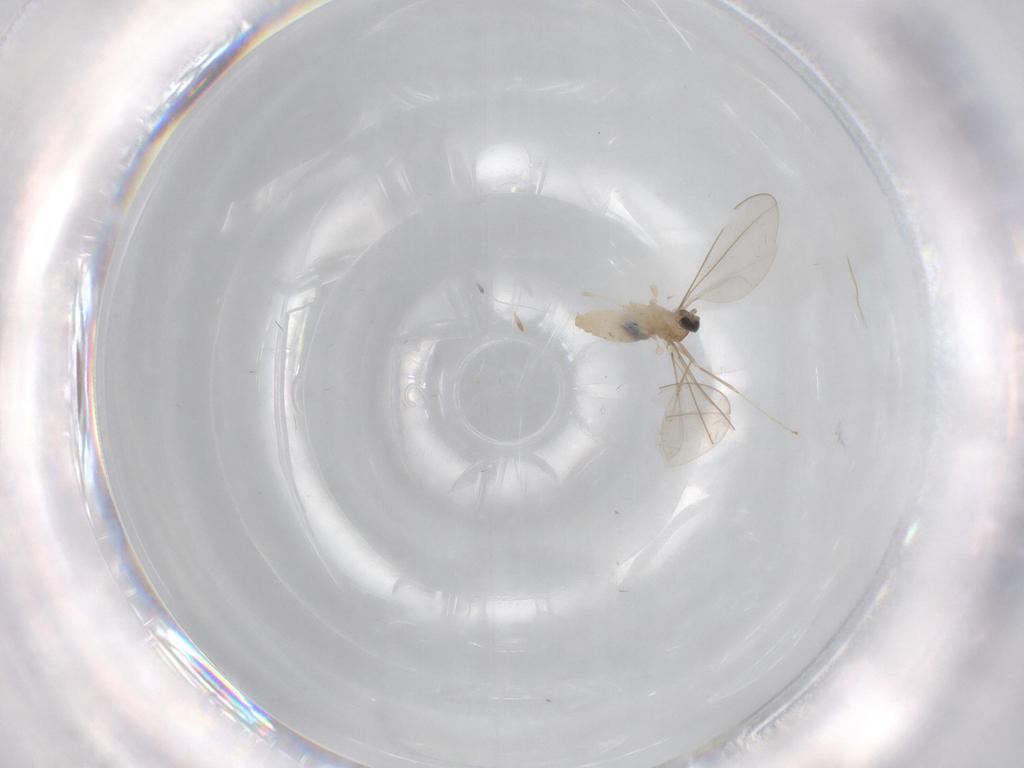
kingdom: Animalia
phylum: Arthropoda
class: Insecta
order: Diptera
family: Cecidomyiidae
